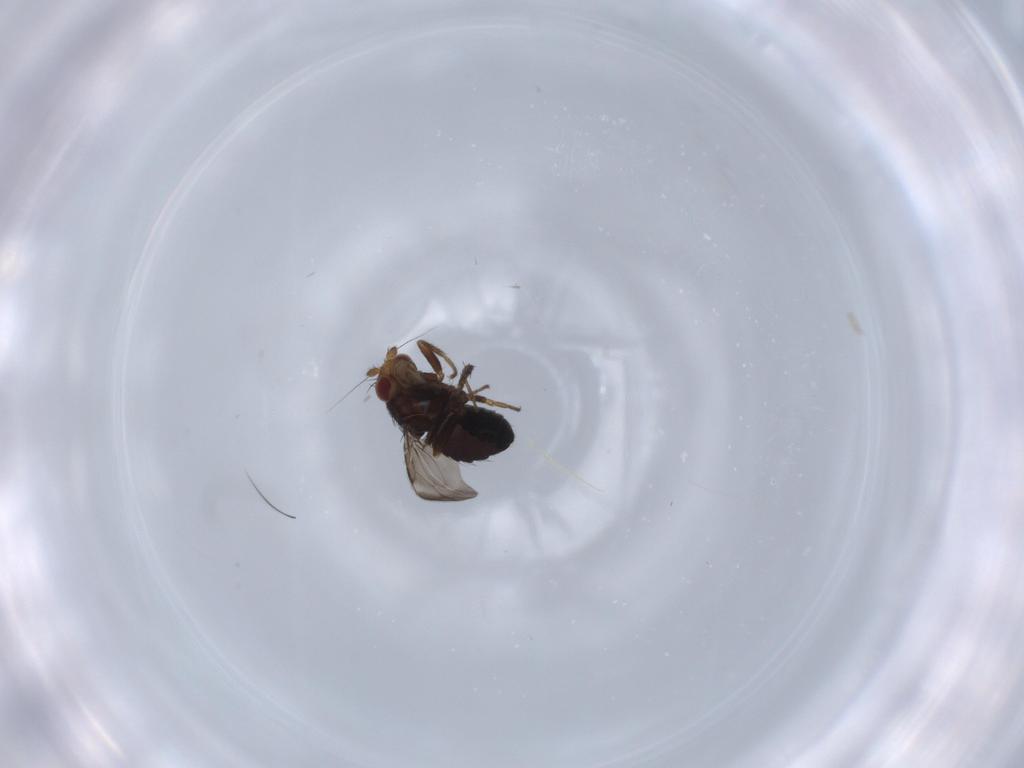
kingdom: Animalia
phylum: Arthropoda
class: Insecta
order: Diptera
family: Sphaeroceridae
